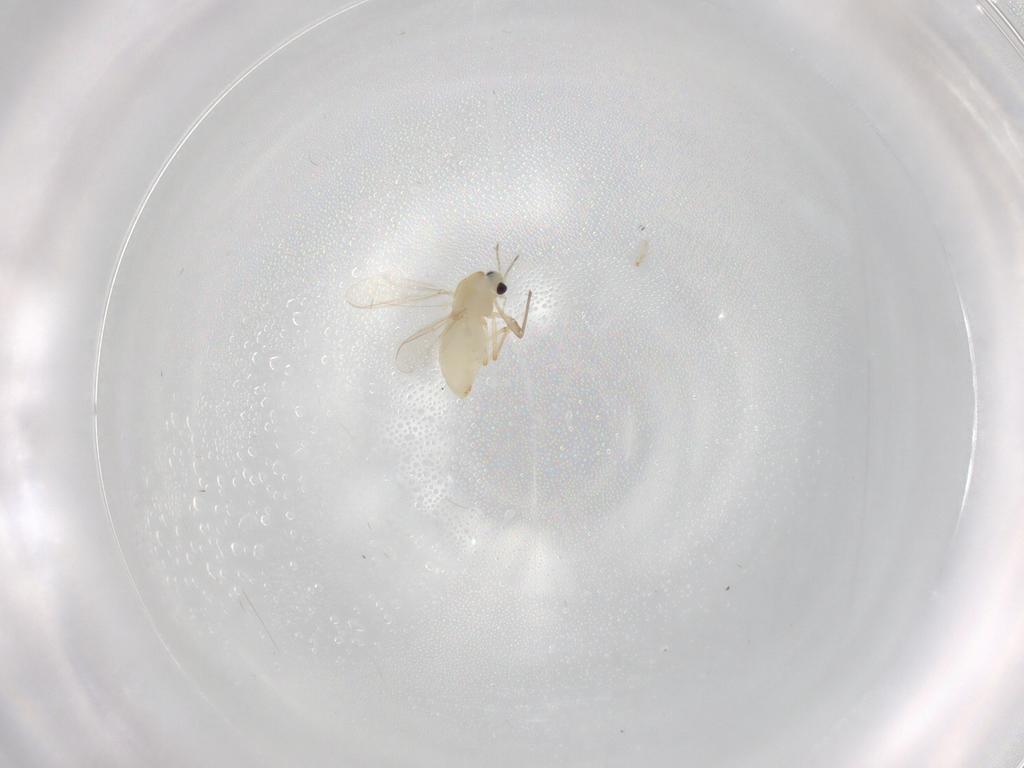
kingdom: Animalia
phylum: Arthropoda
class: Insecta
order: Diptera
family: Chironomidae
